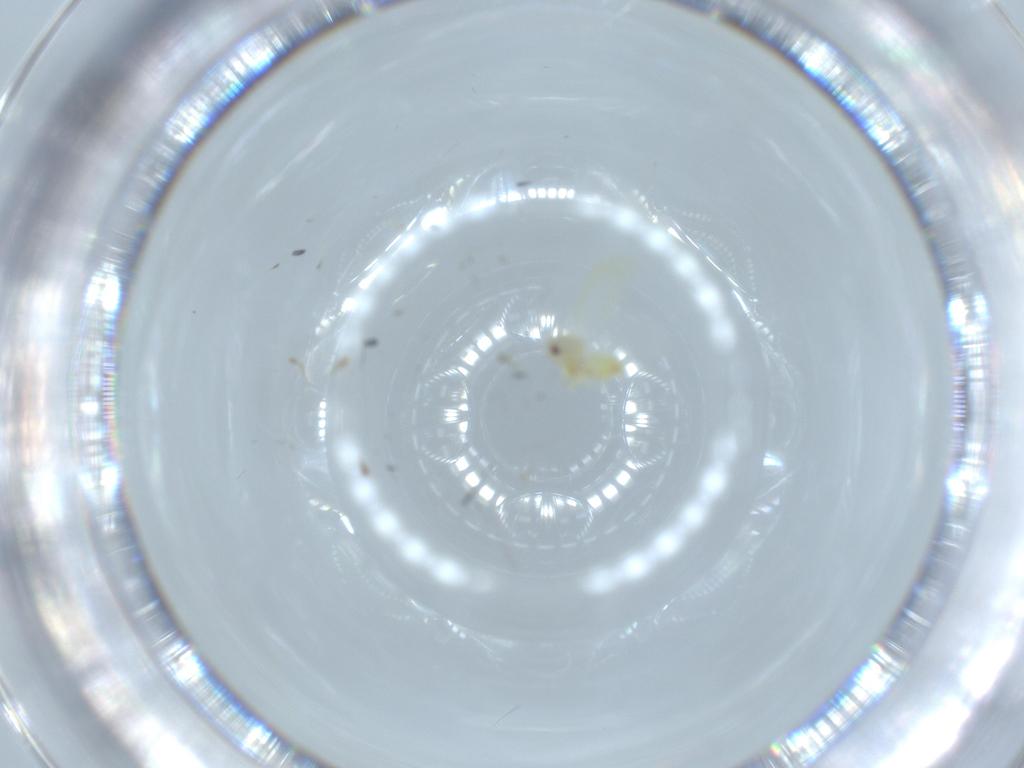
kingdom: Animalia
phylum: Arthropoda
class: Insecta
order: Hemiptera
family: Aleyrodidae
